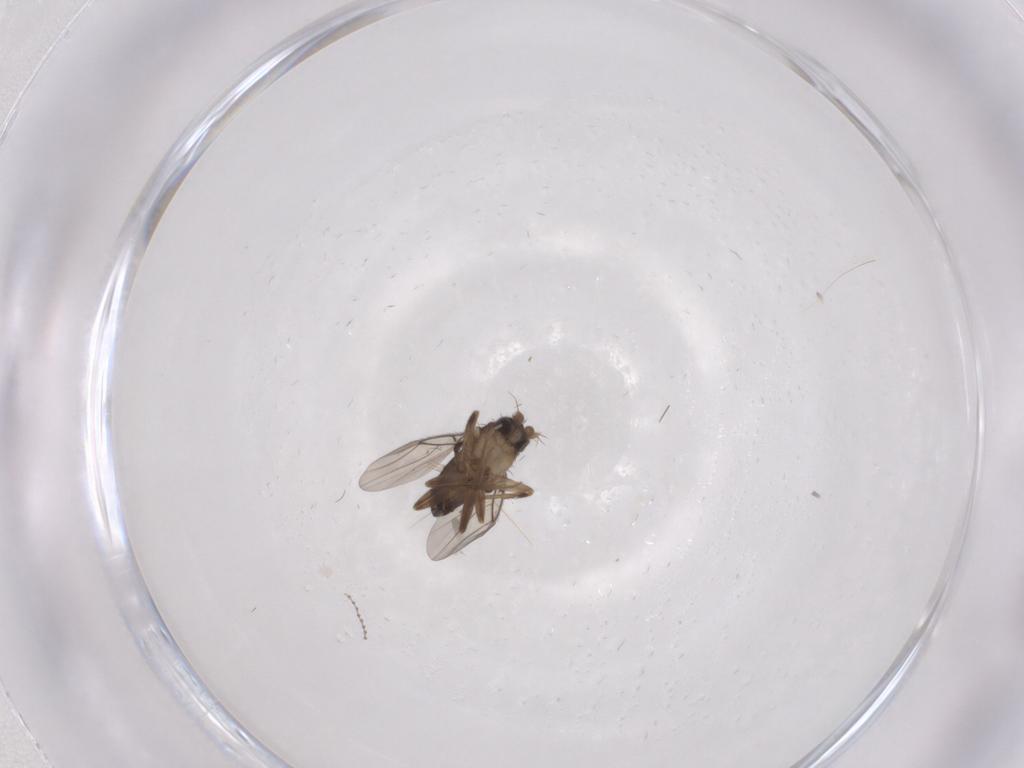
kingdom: Animalia
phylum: Arthropoda
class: Insecta
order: Diptera
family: Phoridae
